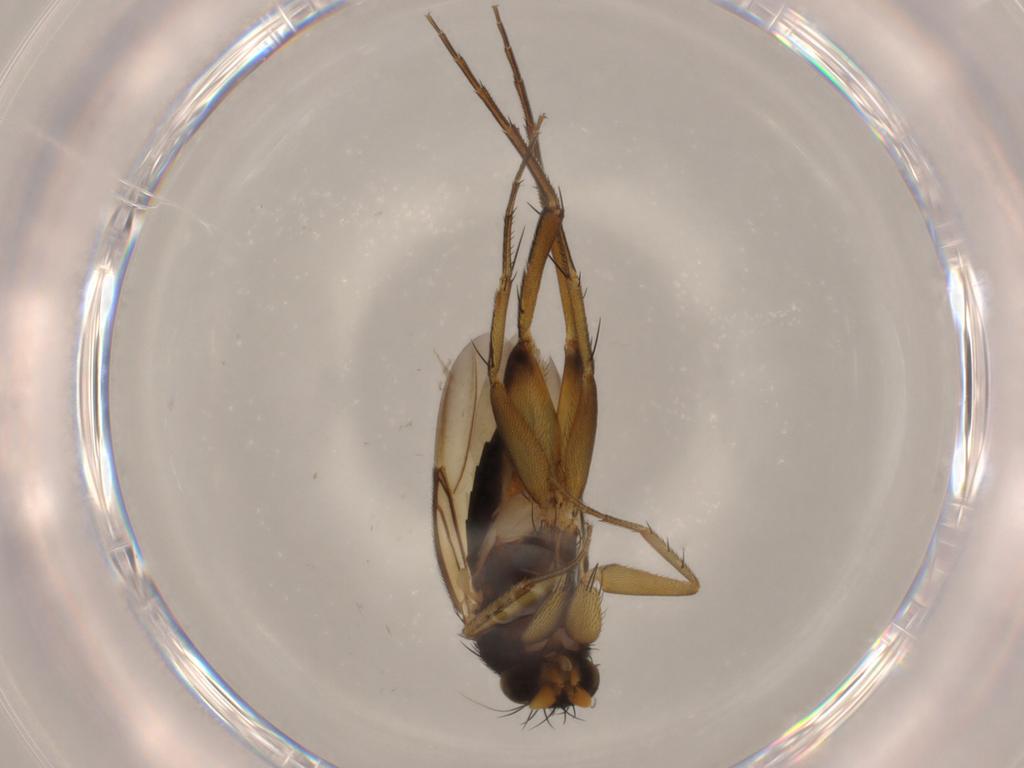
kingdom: Animalia
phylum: Arthropoda
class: Insecta
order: Diptera
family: Phoridae
